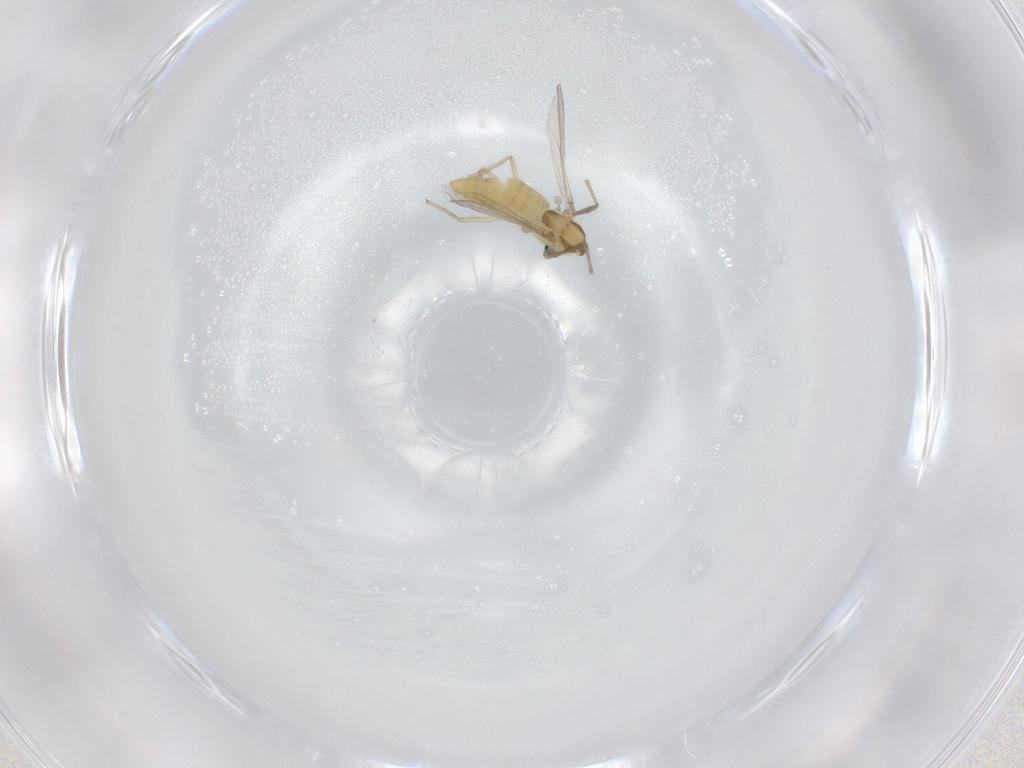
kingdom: Animalia
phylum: Arthropoda
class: Insecta
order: Diptera
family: Chironomidae
